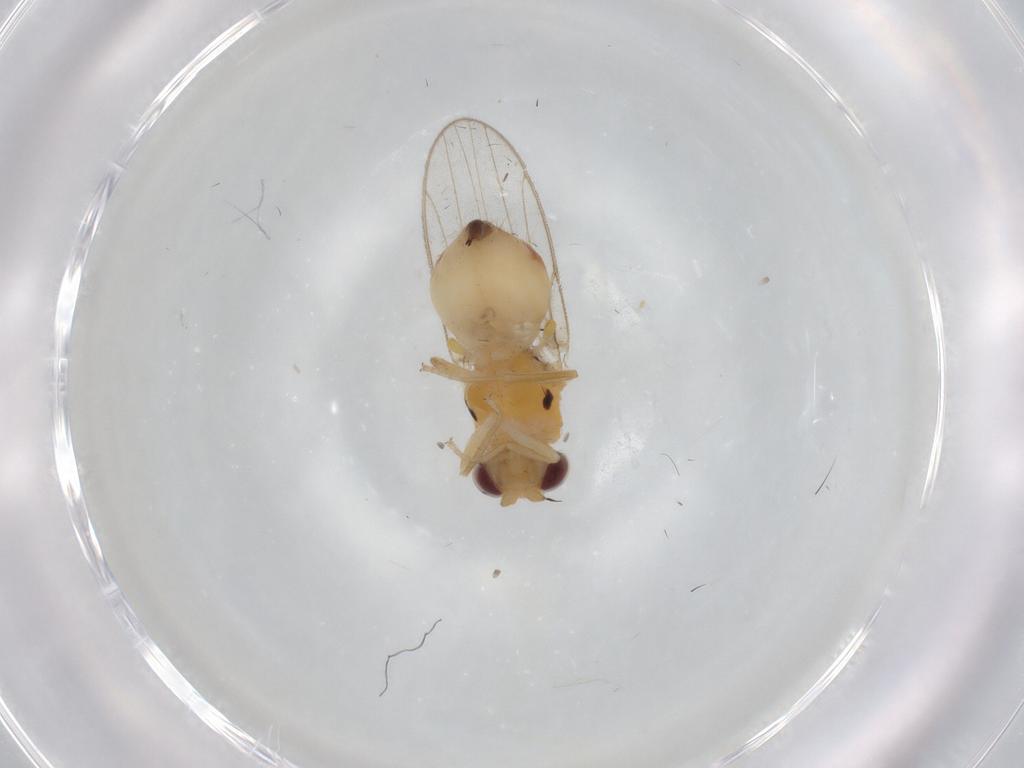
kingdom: Animalia
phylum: Arthropoda
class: Insecta
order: Diptera
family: Chloropidae
